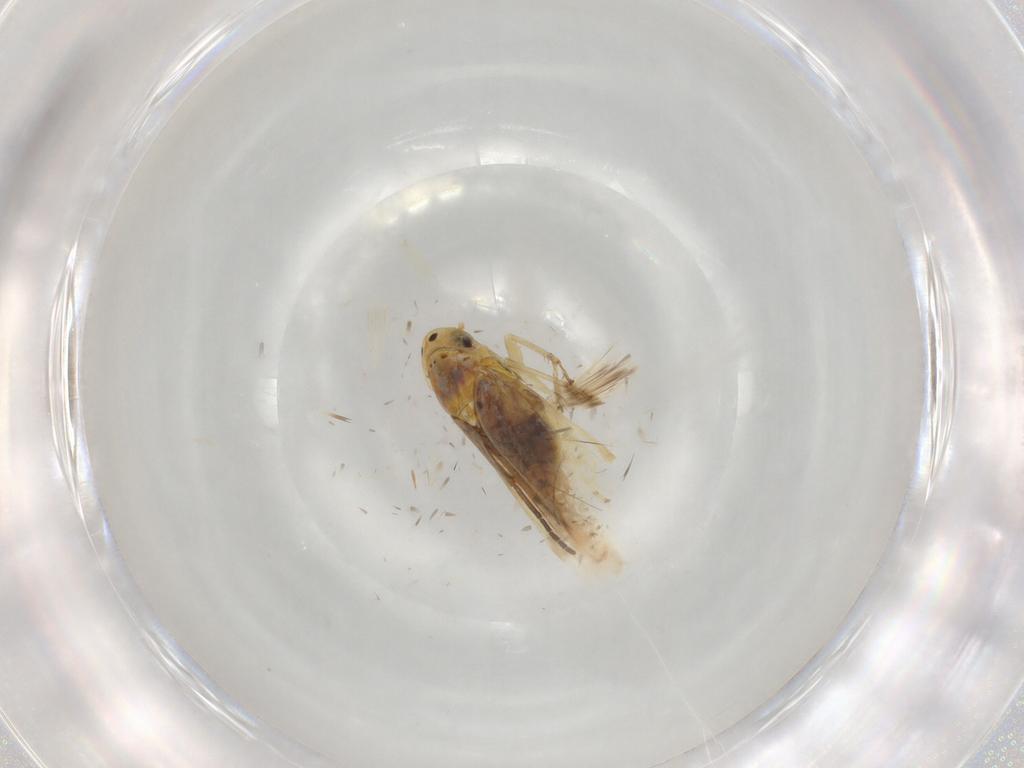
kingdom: Animalia
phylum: Arthropoda
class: Insecta
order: Hemiptera
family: Cicadellidae
